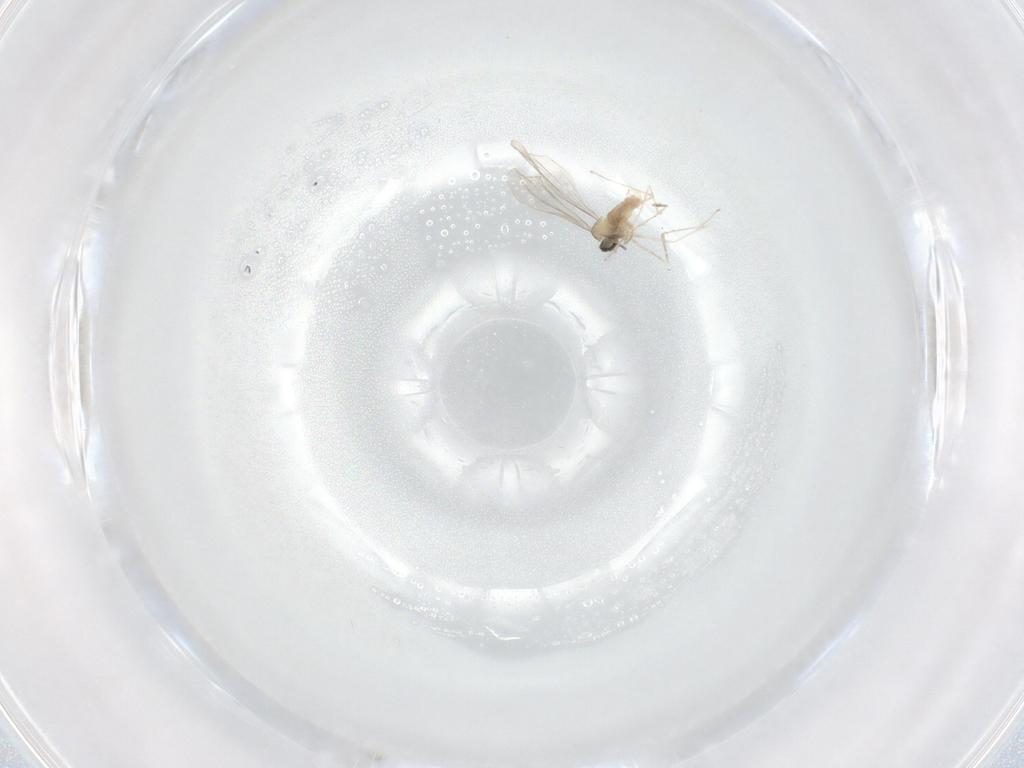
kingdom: Animalia
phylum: Arthropoda
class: Insecta
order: Diptera
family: Cecidomyiidae
